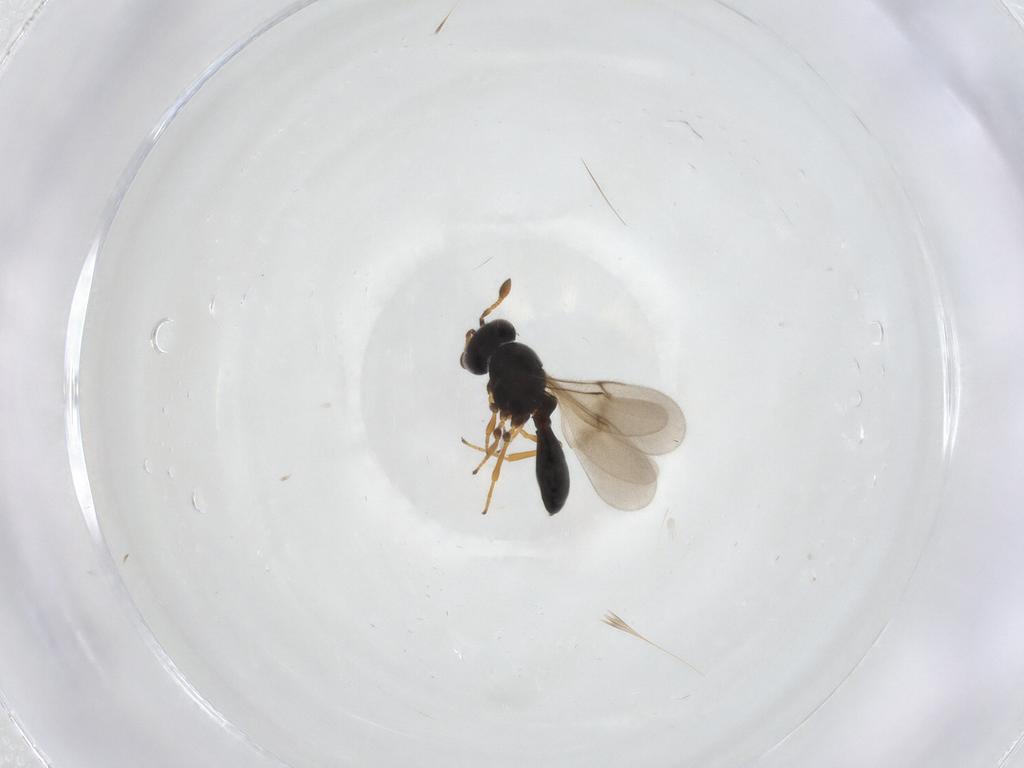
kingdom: Animalia
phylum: Arthropoda
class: Insecta
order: Hymenoptera
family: Scelionidae
